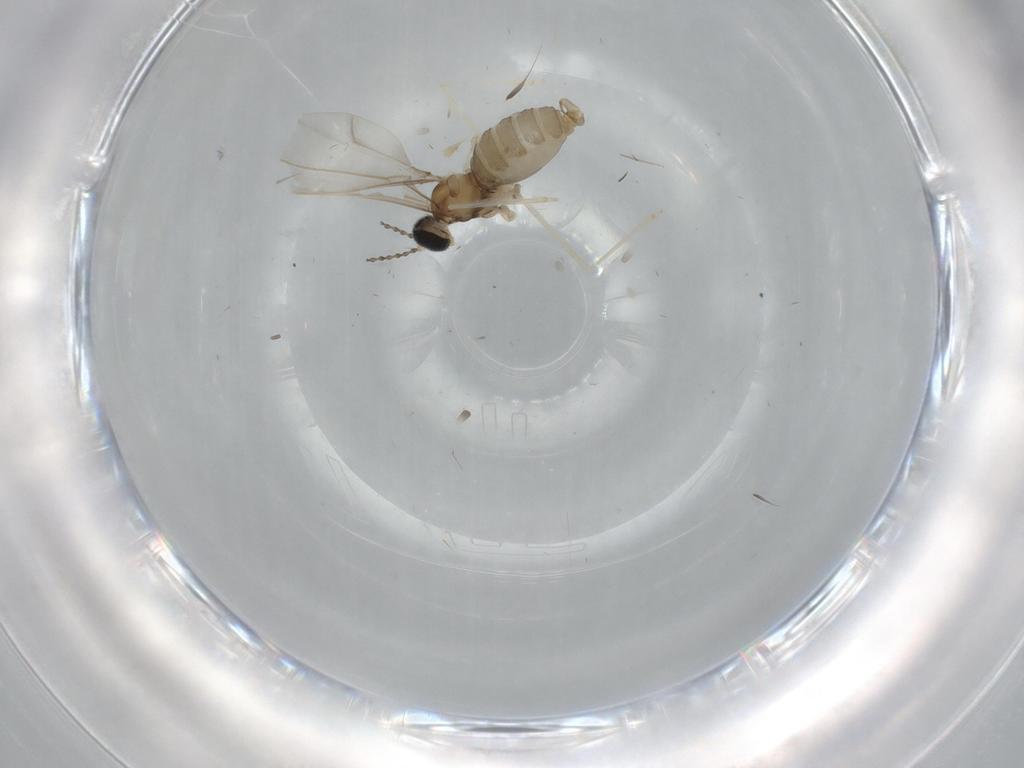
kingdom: Animalia
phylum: Arthropoda
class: Insecta
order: Diptera
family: Cecidomyiidae
